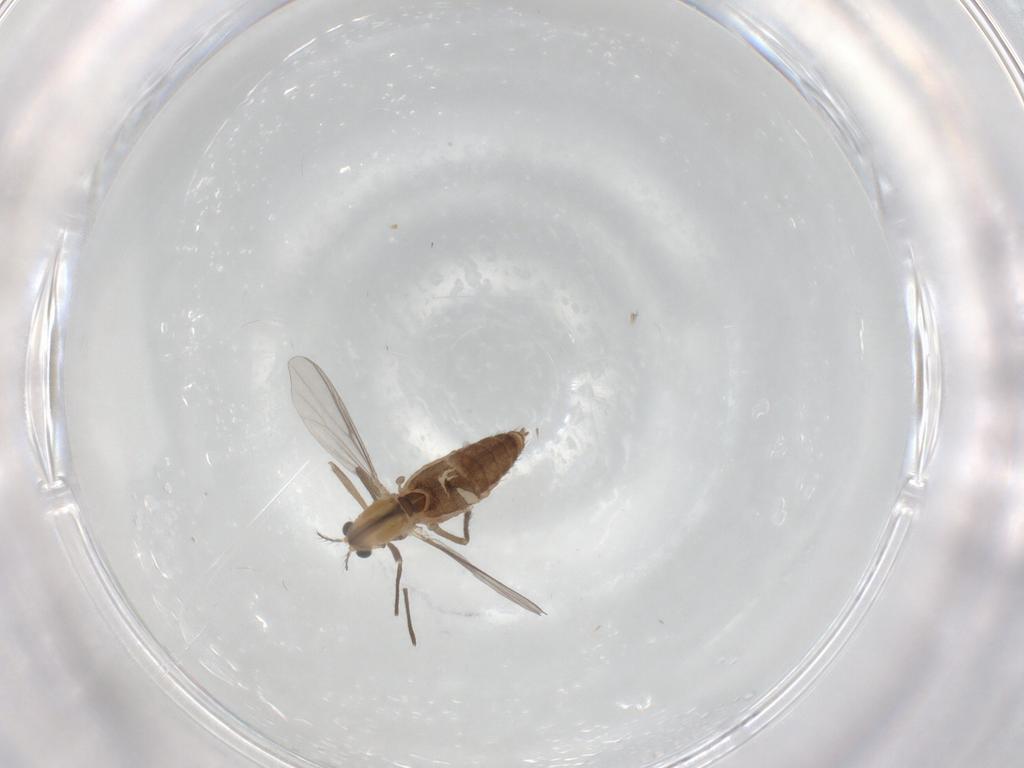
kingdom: Animalia
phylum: Arthropoda
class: Insecta
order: Diptera
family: Chironomidae
